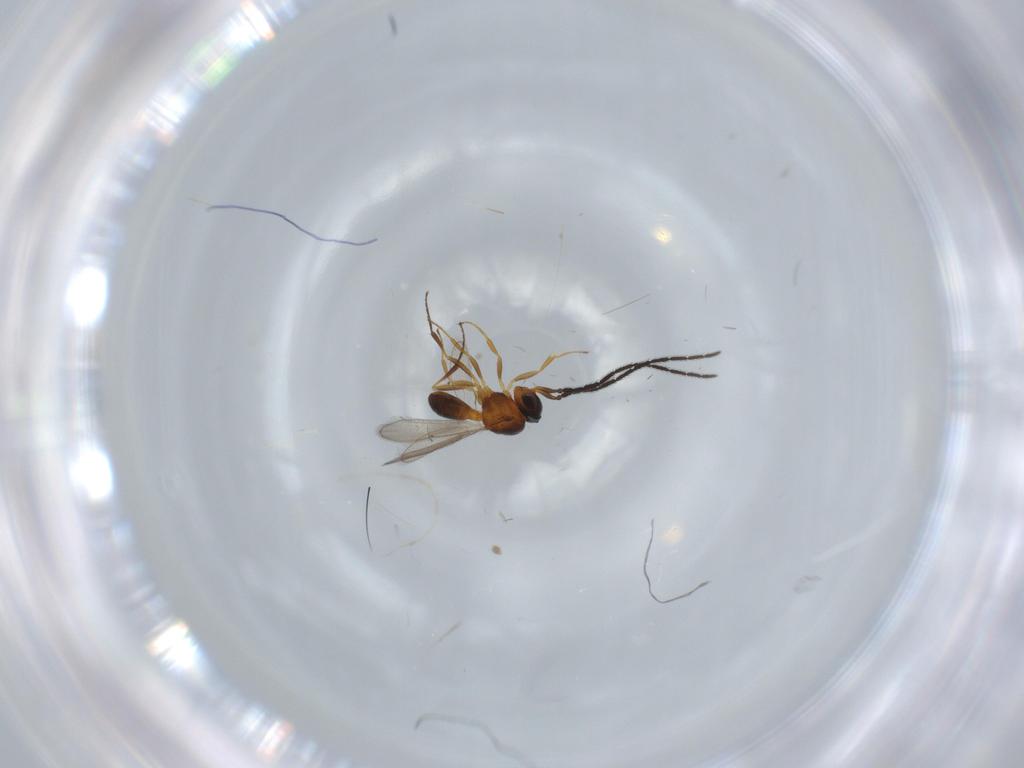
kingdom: Animalia
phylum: Arthropoda
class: Insecta
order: Hymenoptera
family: Scelionidae
